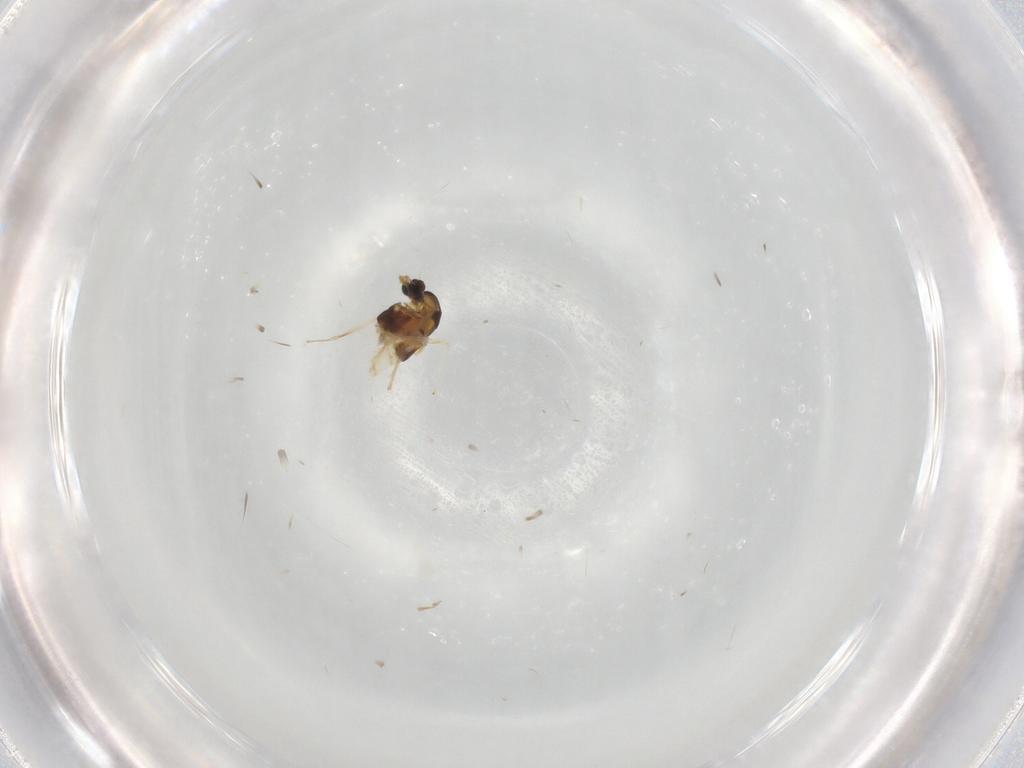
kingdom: Animalia
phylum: Arthropoda
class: Insecta
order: Diptera
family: Chironomidae
